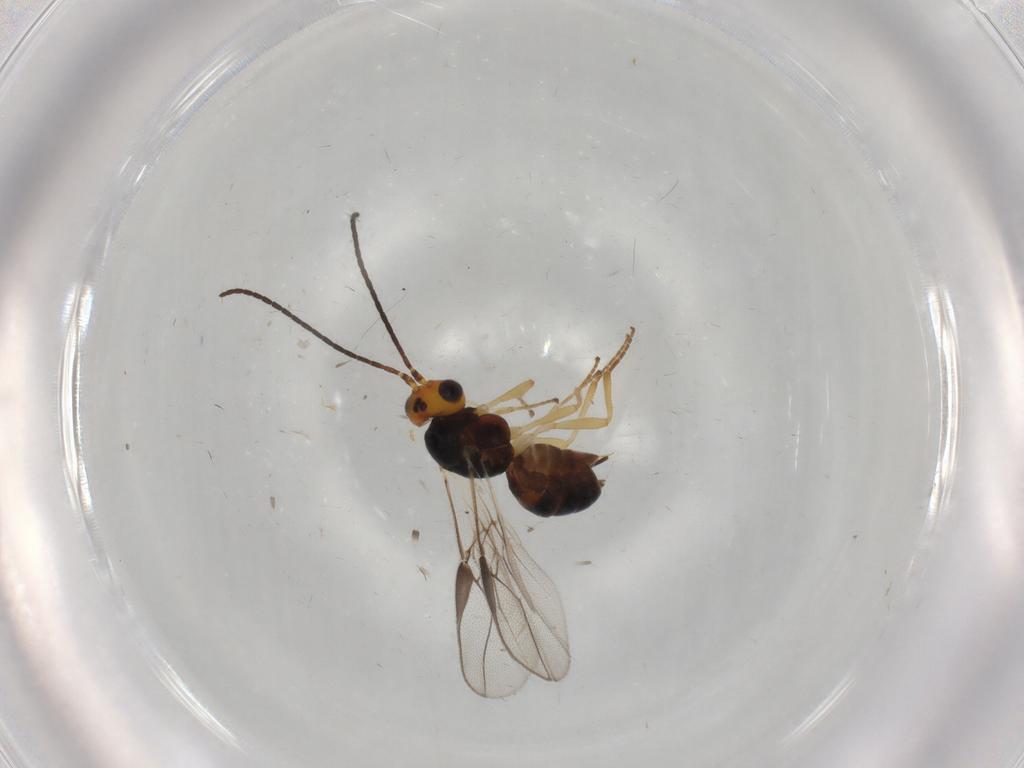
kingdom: Animalia
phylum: Arthropoda
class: Insecta
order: Hymenoptera
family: Braconidae
